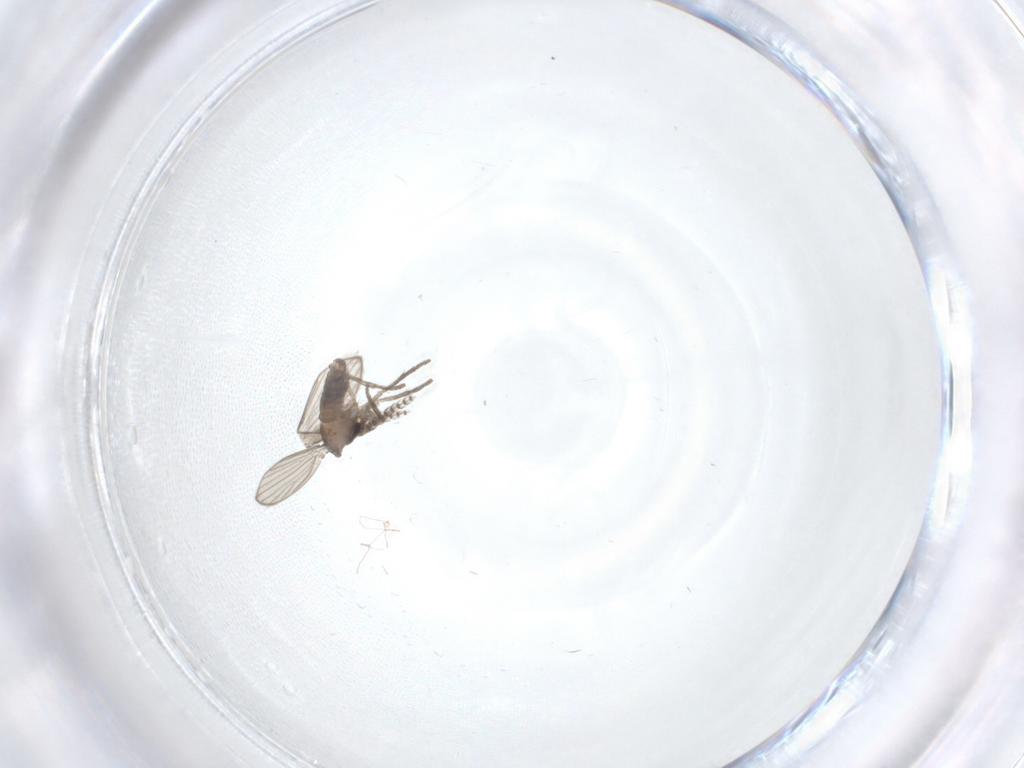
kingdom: Animalia
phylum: Arthropoda
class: Insecta
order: Diptera
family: Psychodidae
